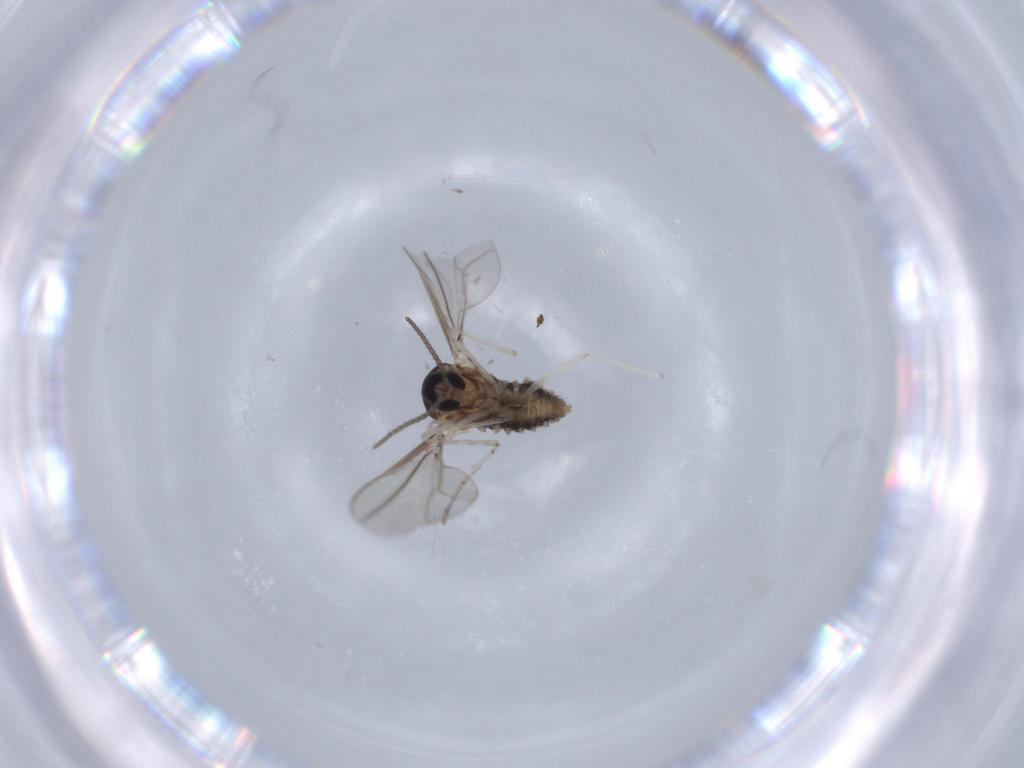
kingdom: Animalia
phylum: Arthropoda
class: Insecta
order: Diptera
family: Cecidomyiidae
